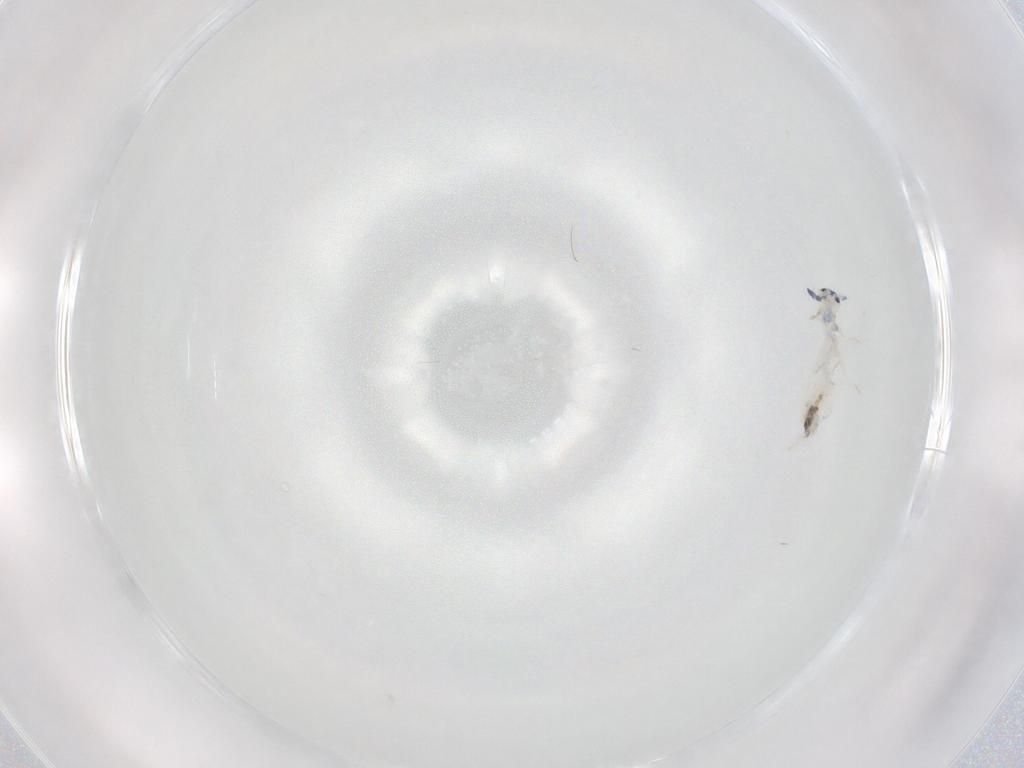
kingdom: Animalia
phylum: Arthropoda
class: Collembola
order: Entomobryomorpha
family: Entomobryidae
